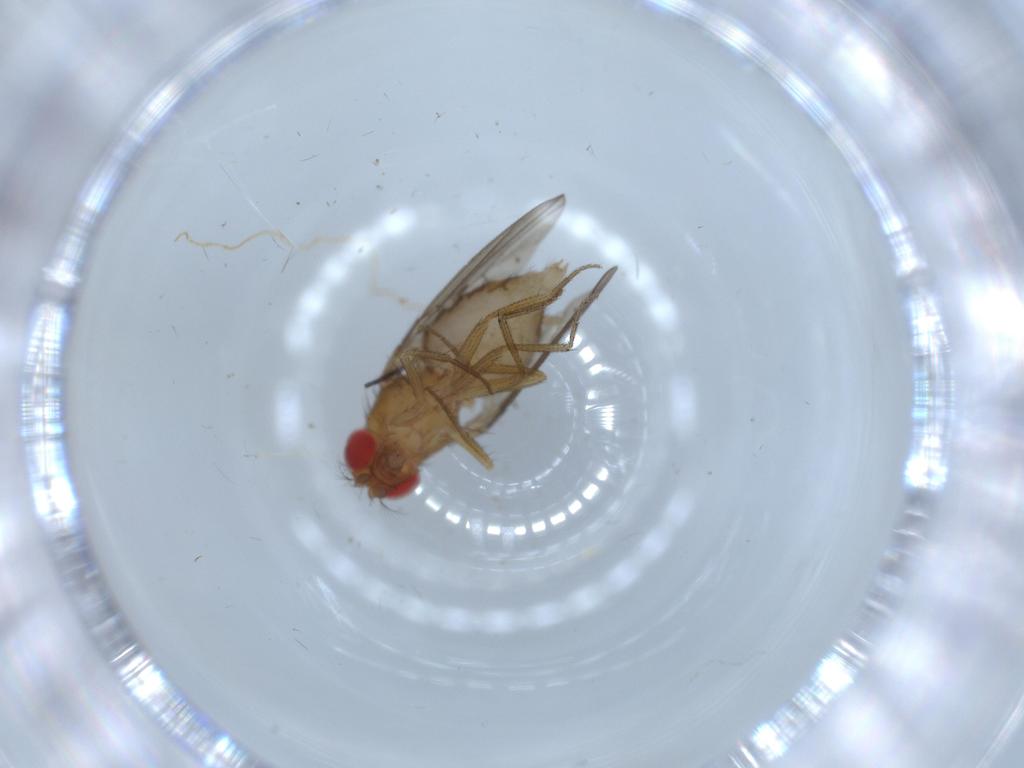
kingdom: Animalia
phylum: Arthropoda
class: Insecta
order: Diptera
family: Drosophilidae
